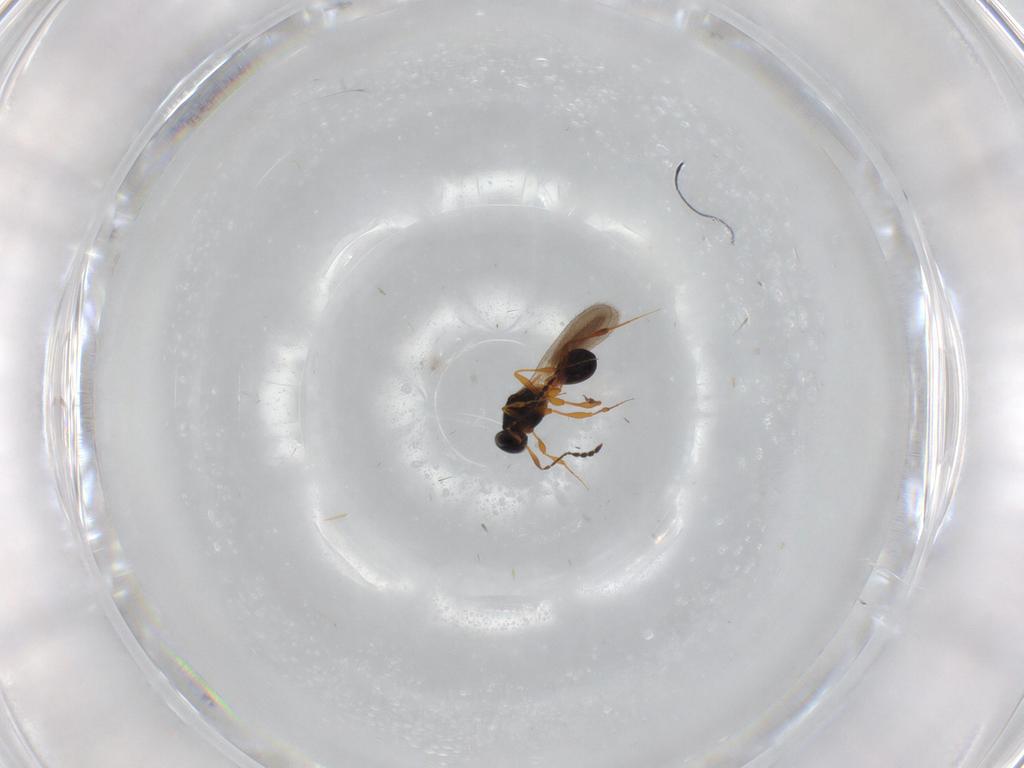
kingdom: Animalia
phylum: Arthropoda
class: Insecta
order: Hymenoptera
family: Platygastridae
